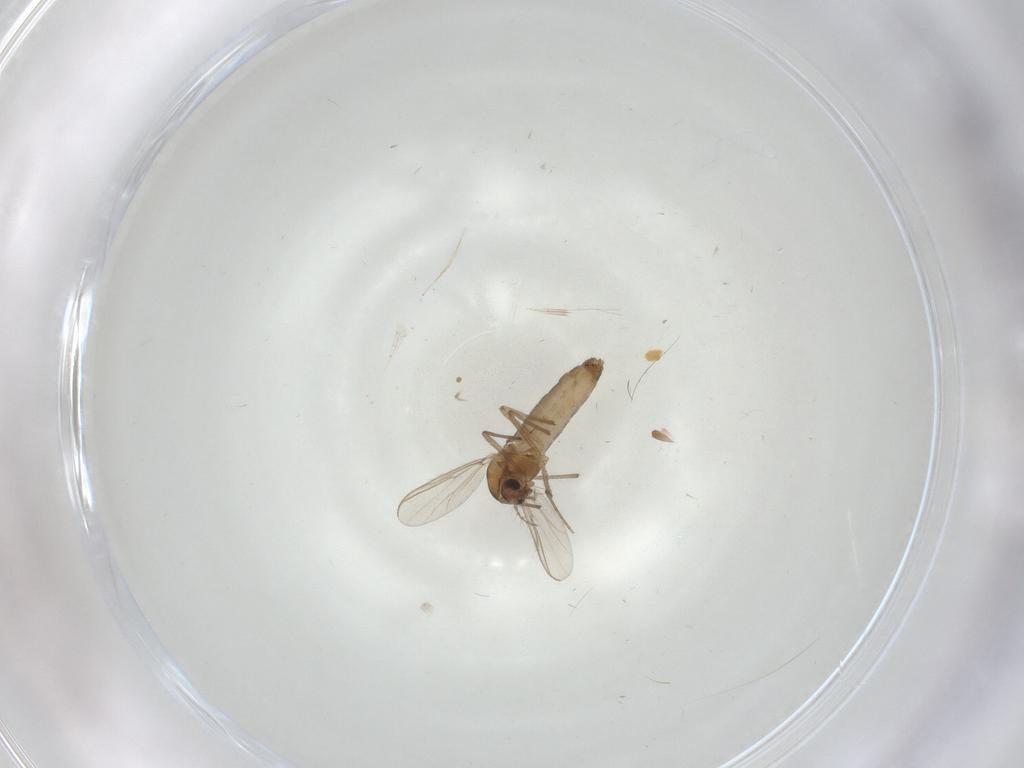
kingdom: Animalia
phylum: Arthropoda
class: Insecta
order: Diptera
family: Chironomidae
